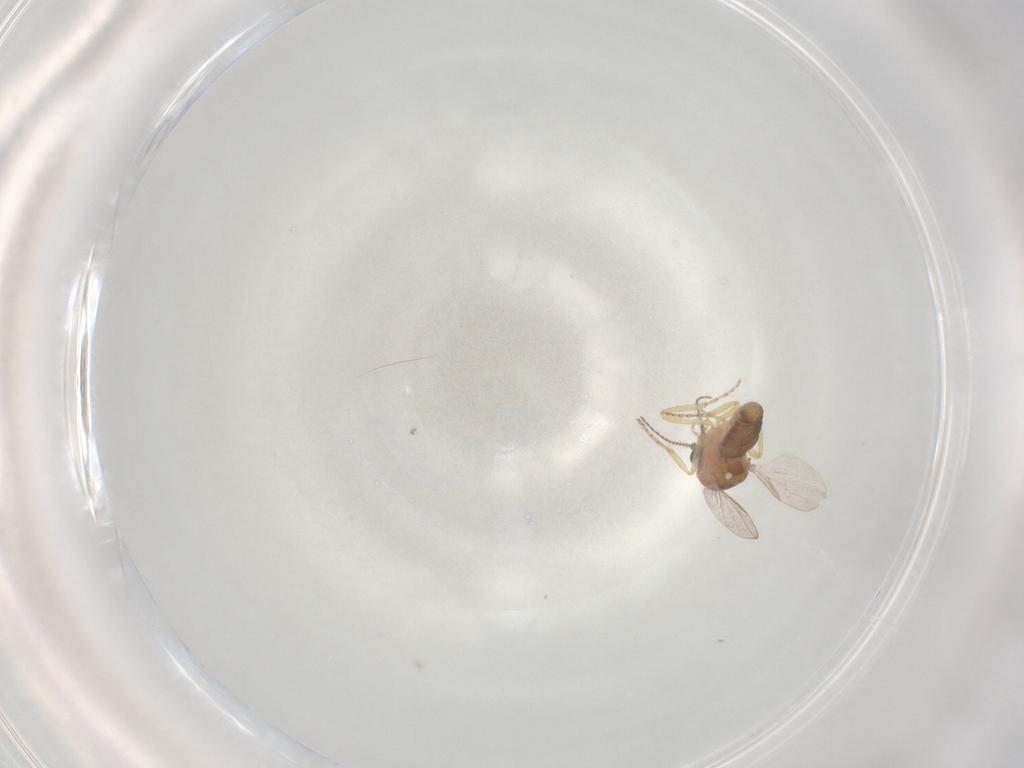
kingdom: Animalia
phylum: Arthropoda
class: Insecta
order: Diptera
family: Ceratopogonidae
